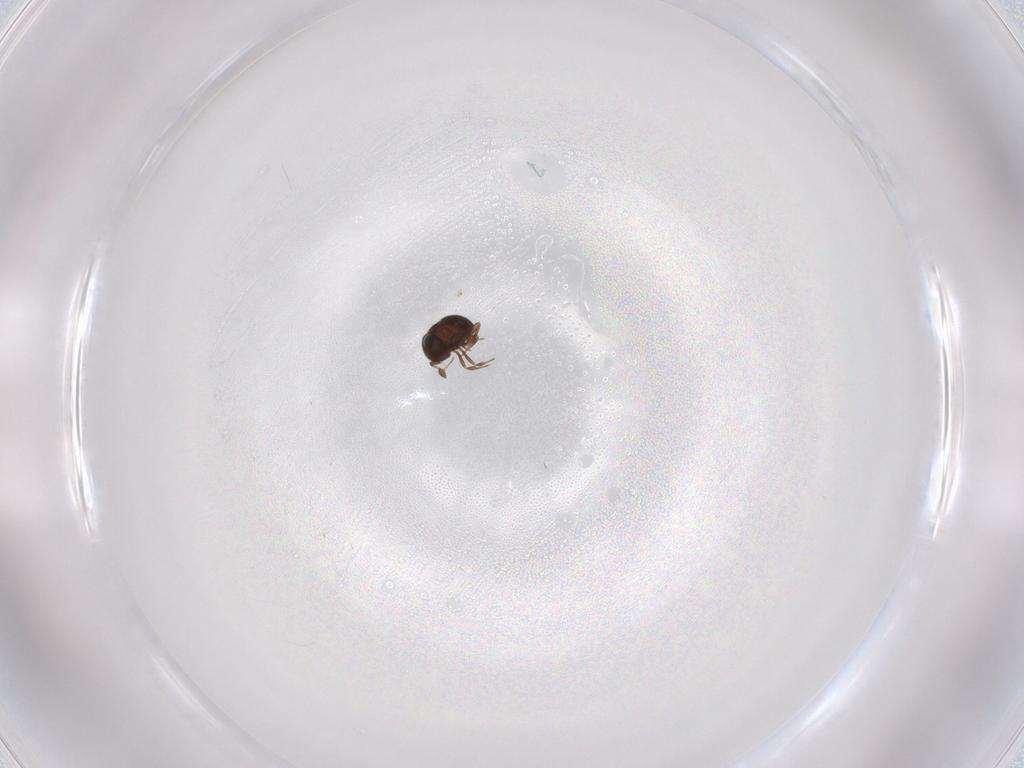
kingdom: Animalia
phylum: Arthropoda
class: Insecta
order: Hymenoptera
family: Scelionidae
